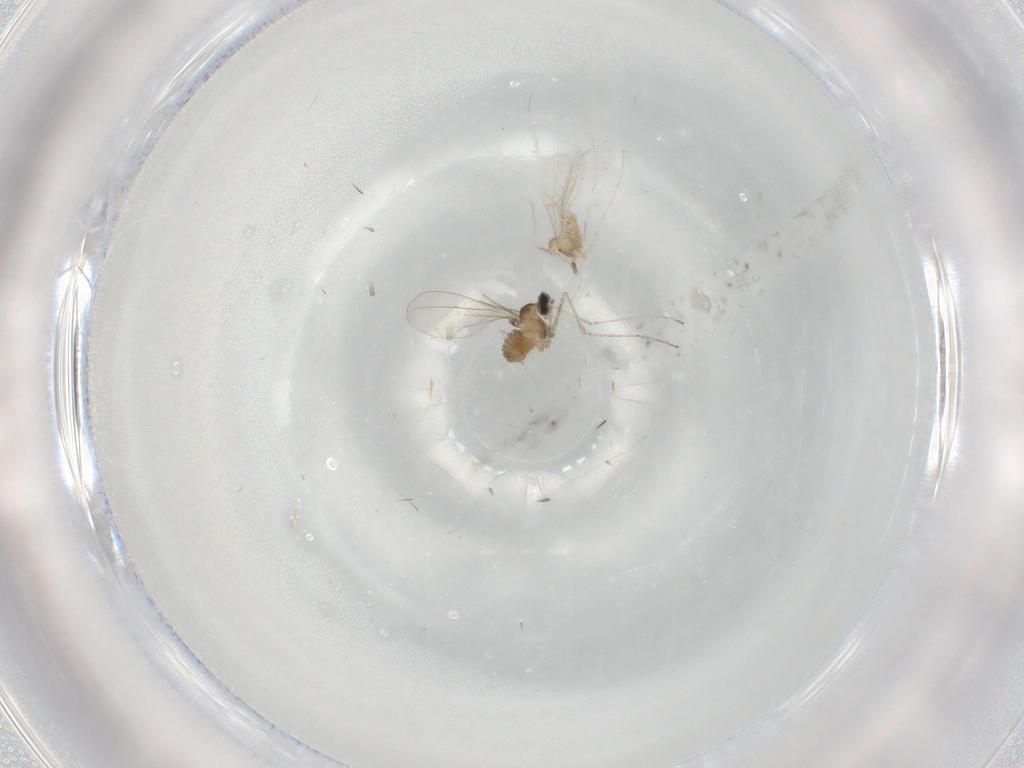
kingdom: Animalia
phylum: Arthropoda
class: Insecta
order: Diptera
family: Cecidomyiidae
